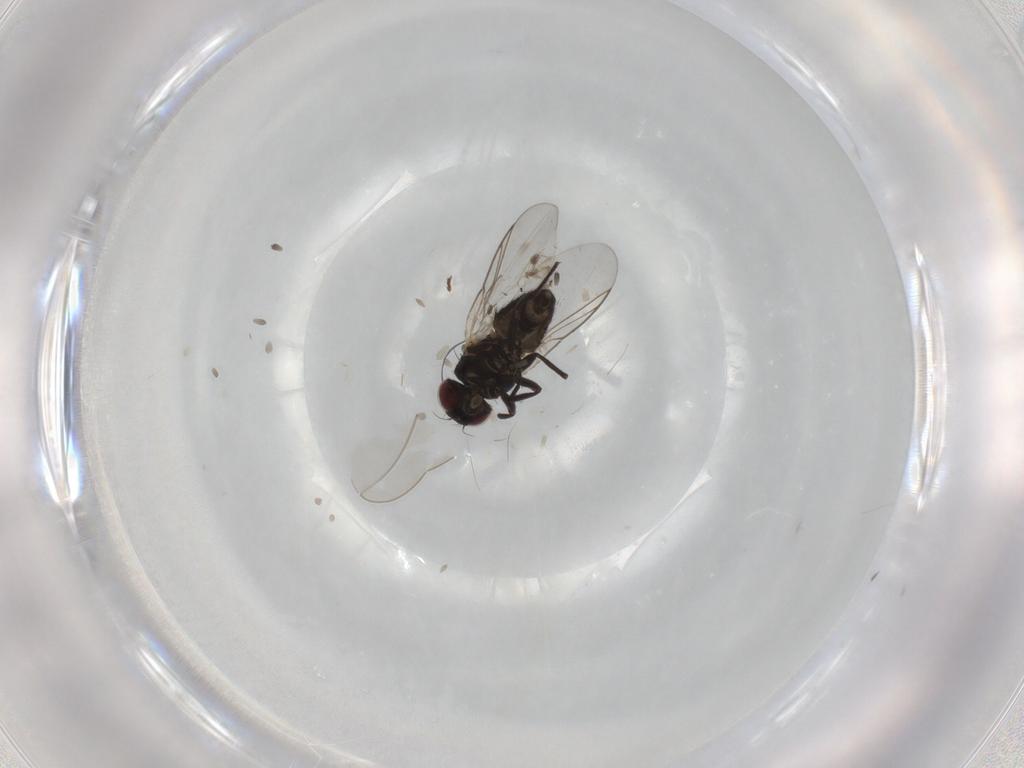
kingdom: Animalia
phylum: Arthropoda
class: Insecta
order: Diptera
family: Cecidomyiidae
